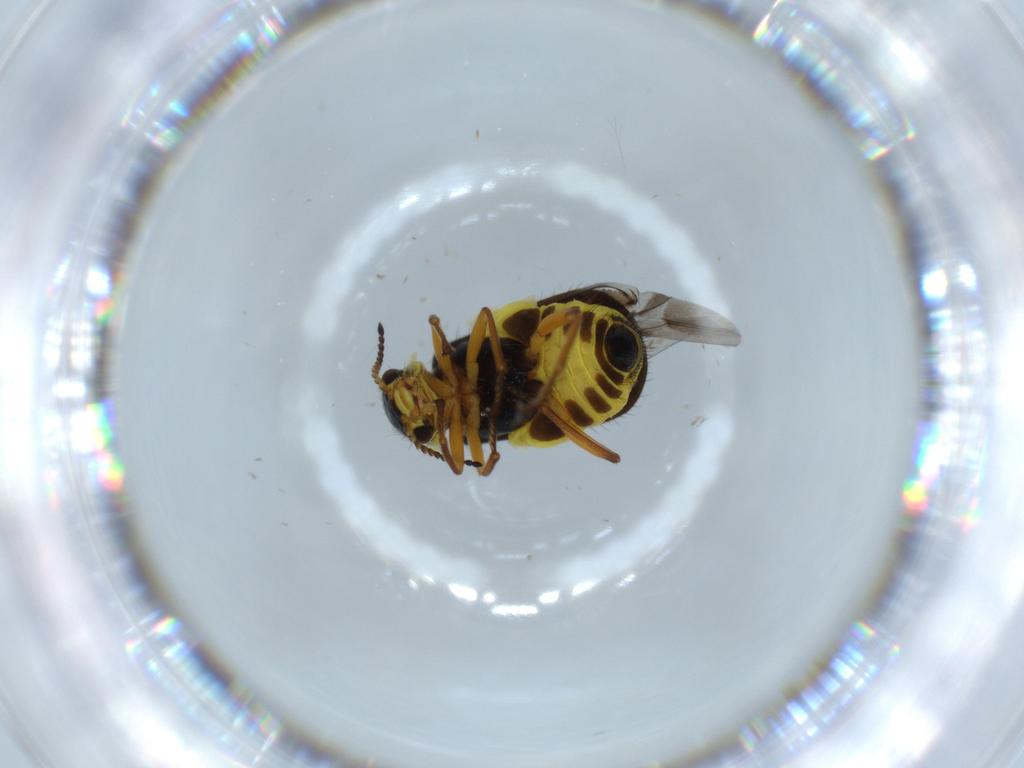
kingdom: Animalia
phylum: Arthropoda
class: Insecta
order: Coleoptera
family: Melyridae
